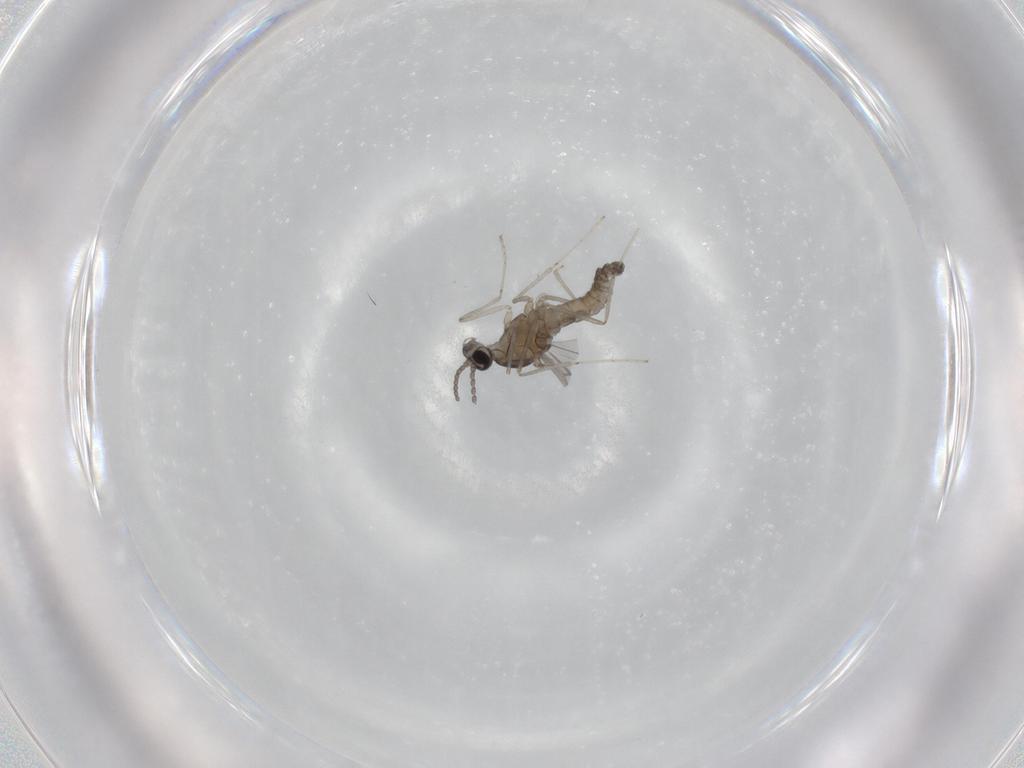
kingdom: Animalia
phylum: Arthropoda
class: Insecta
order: Diptera
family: Cecidomyiidae
